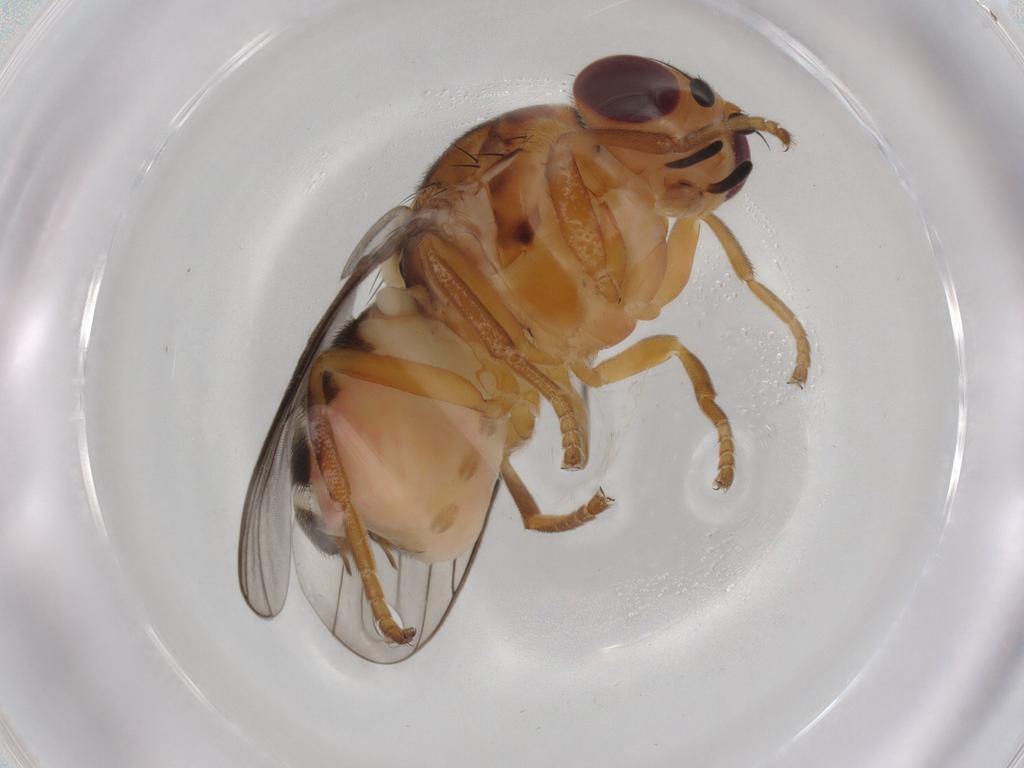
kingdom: Animalia
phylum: Arthropoda
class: Insecta
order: Diptera
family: Chloropidae
